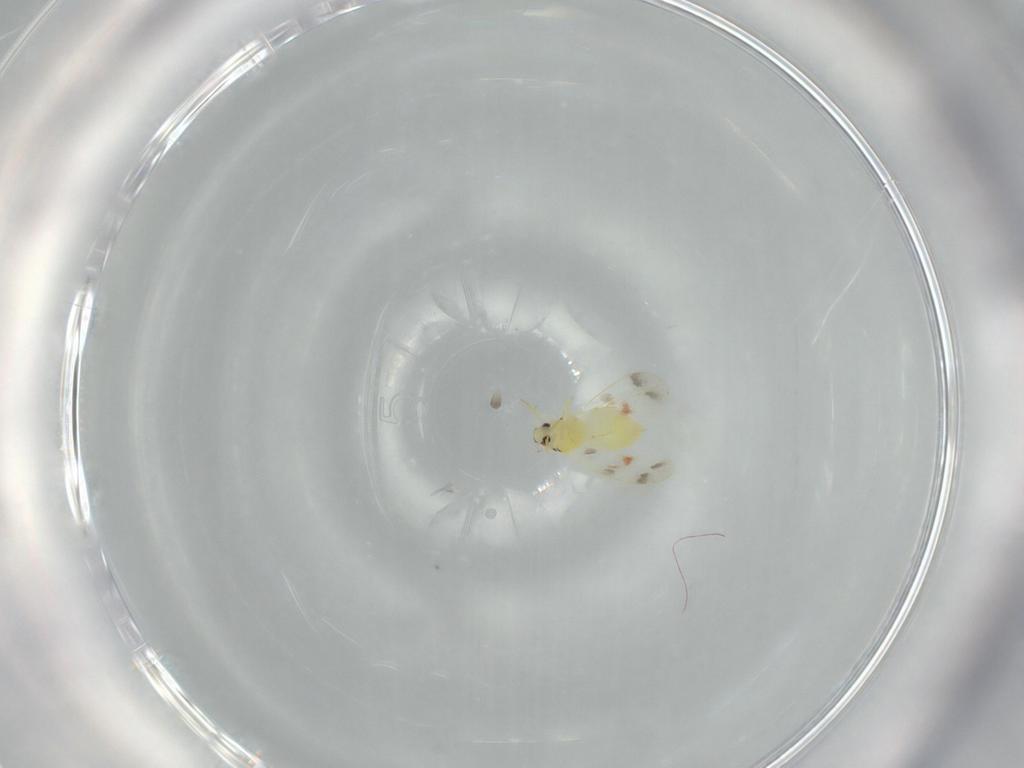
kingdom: Animalia
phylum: Arthropoda
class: Insecta
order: Hemiptera
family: Aleyrodidae
